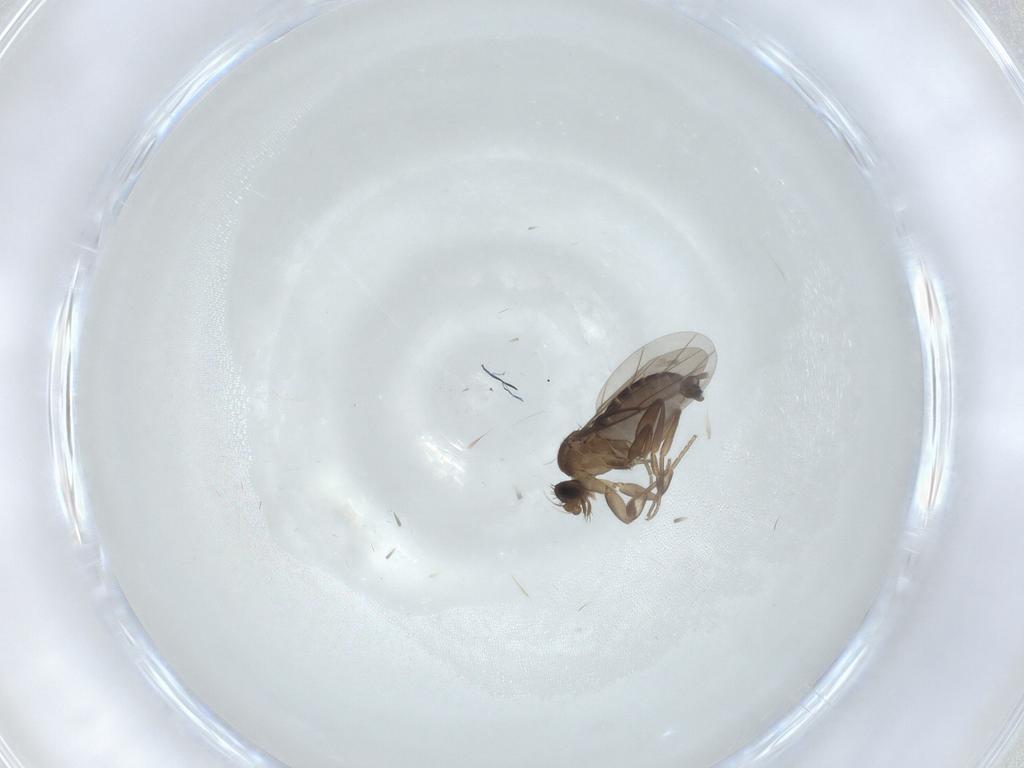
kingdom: Animalia
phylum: Arthropoda
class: Insecta
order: Diptera
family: Phoridae
